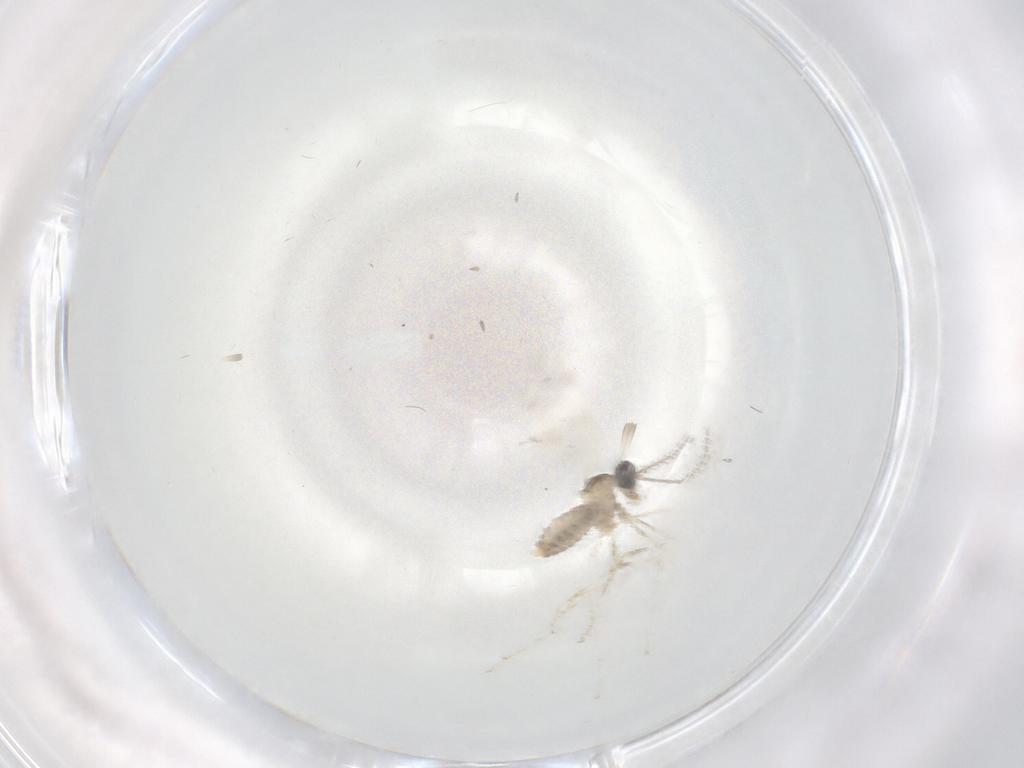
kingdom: Animalia
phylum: Arthropoda
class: Insecta
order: Diptera
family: Cecidomyiidae
